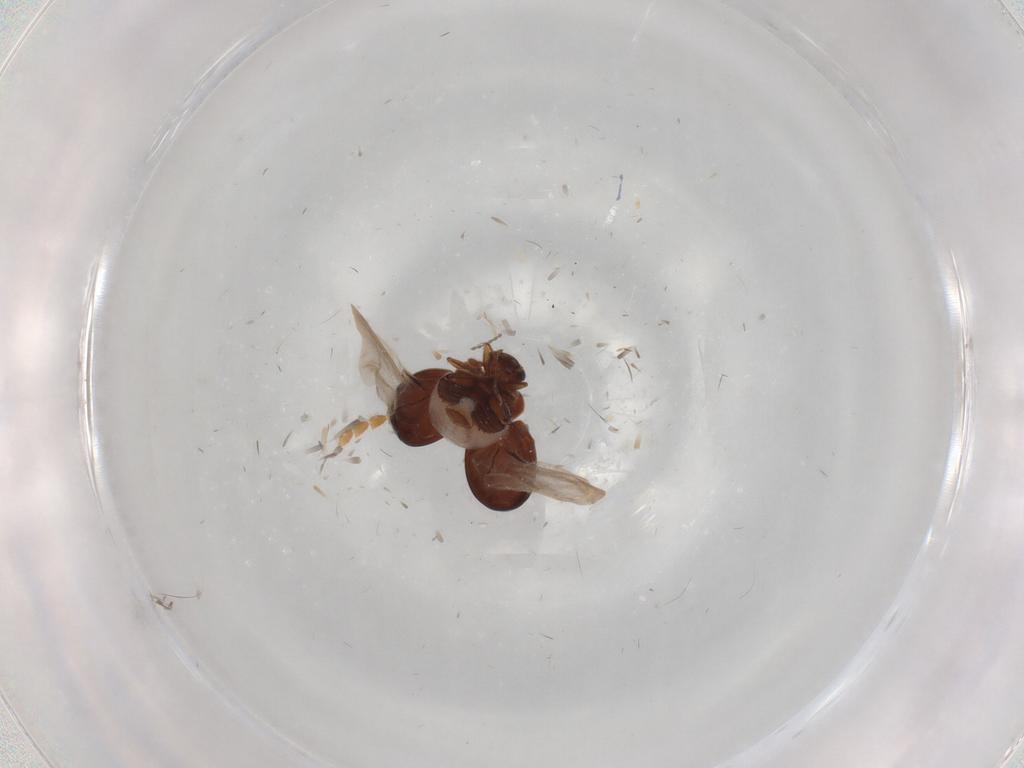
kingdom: Animalia
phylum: Arthropoda
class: Insecta
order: Coleoptera
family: Anamorphidae
